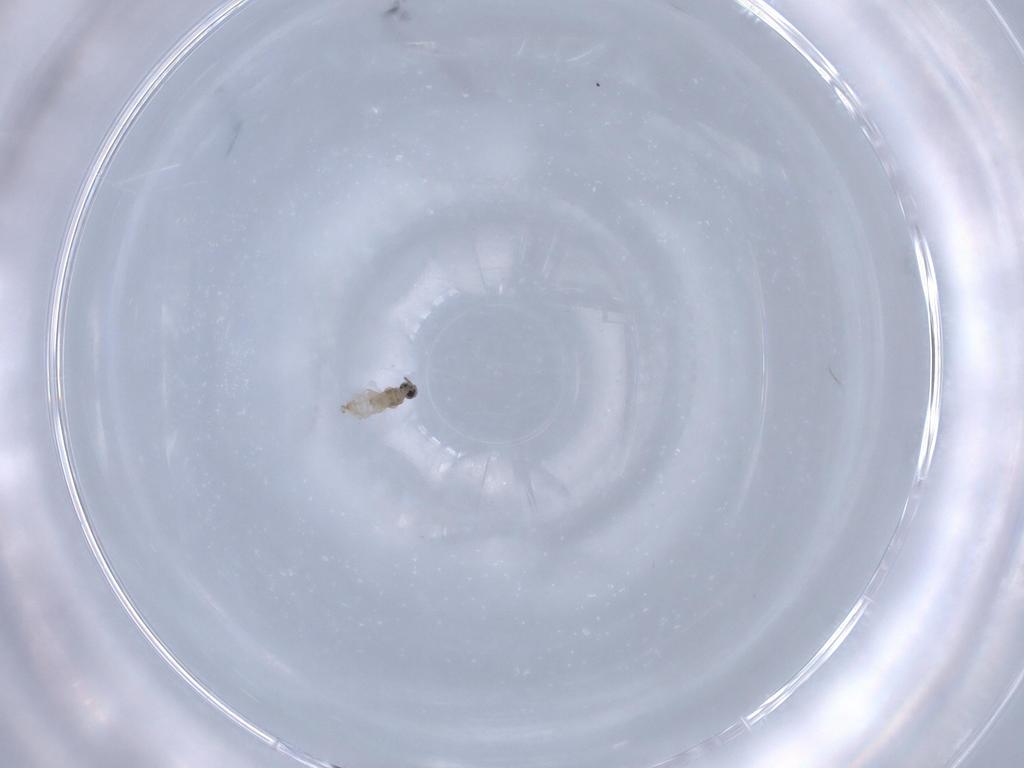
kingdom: Animalia
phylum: Arthropoda
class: Insecta
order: Diptera
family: Cecidomyiidae
